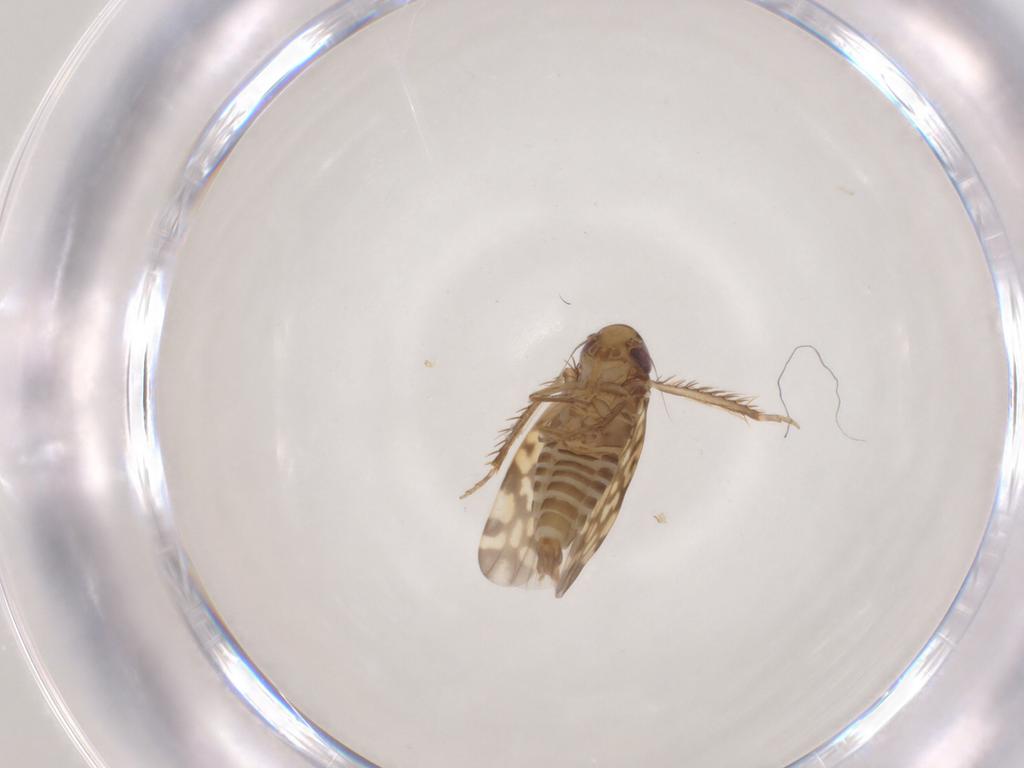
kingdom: Animalia
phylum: Arthropoda
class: Insecta
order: Hemiptera
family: Cicadellidae
